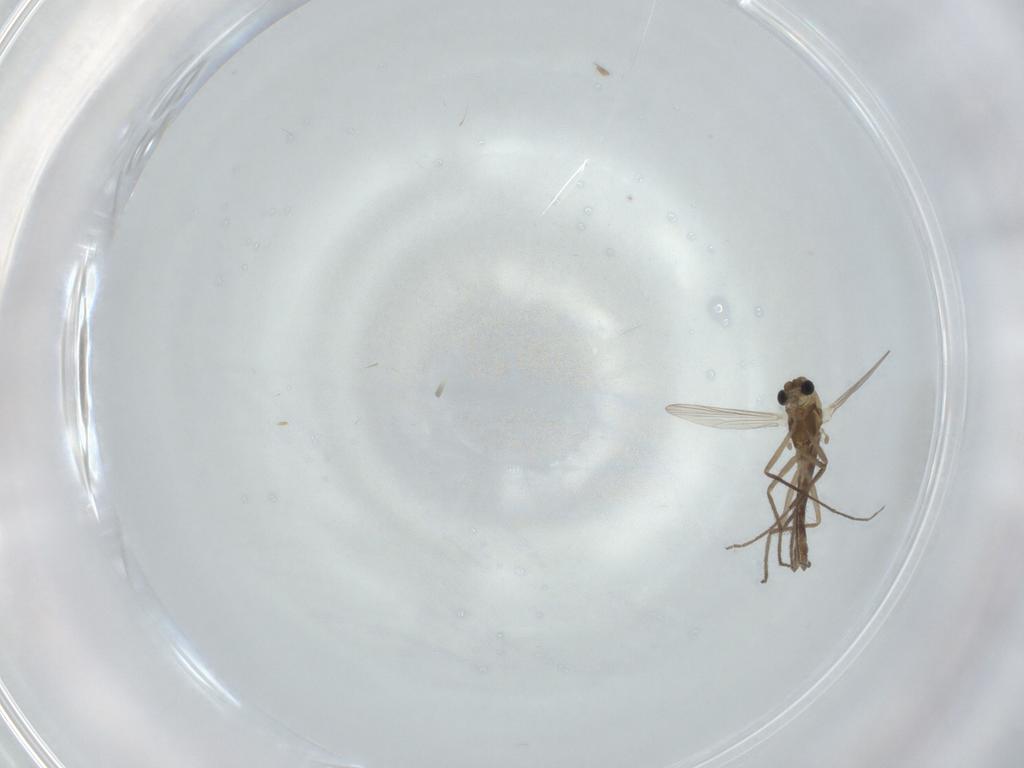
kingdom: Animalia
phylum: Arthropoda
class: Insecta
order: Diptera
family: Chironomidae
